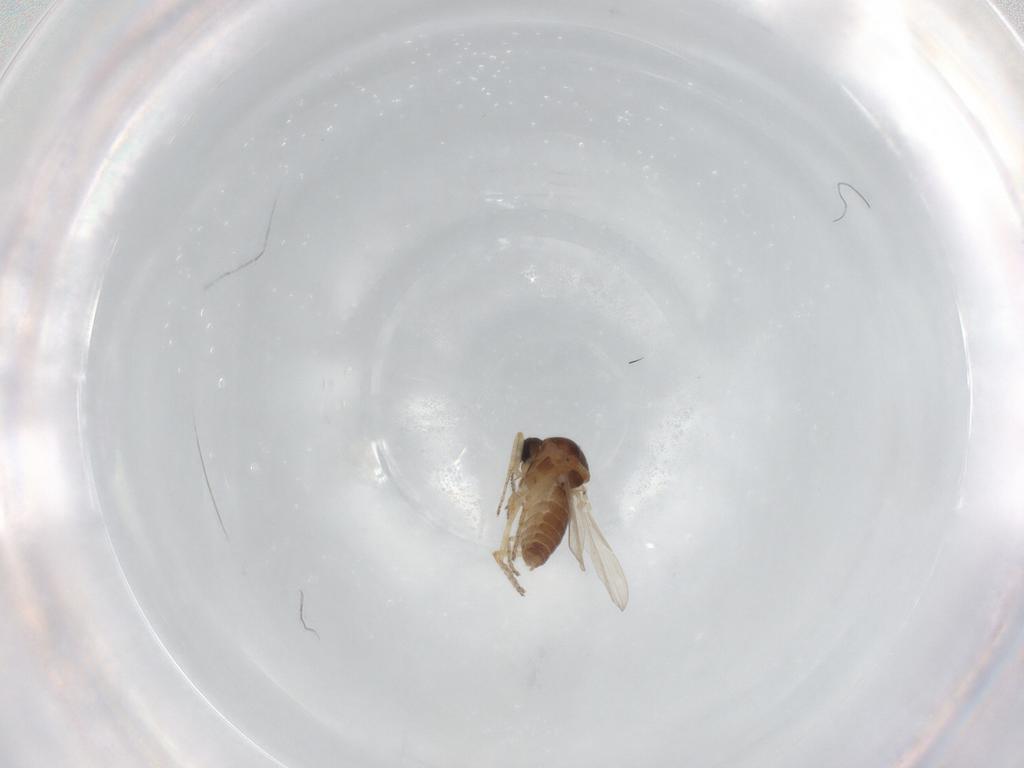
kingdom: Animalia
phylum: Arthropoda
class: Insecta
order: Diptera
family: Ceratopogonidae
